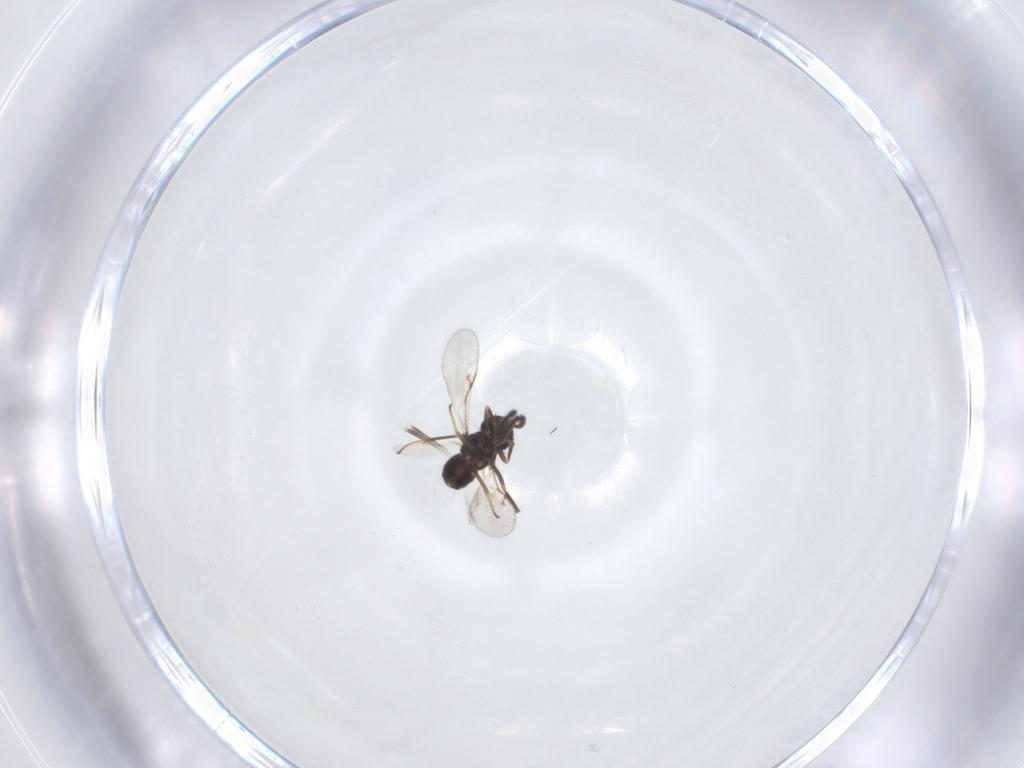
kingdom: Animalia
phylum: Arthropoda
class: Insecta
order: Hymenoptera
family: Encyrtidae
